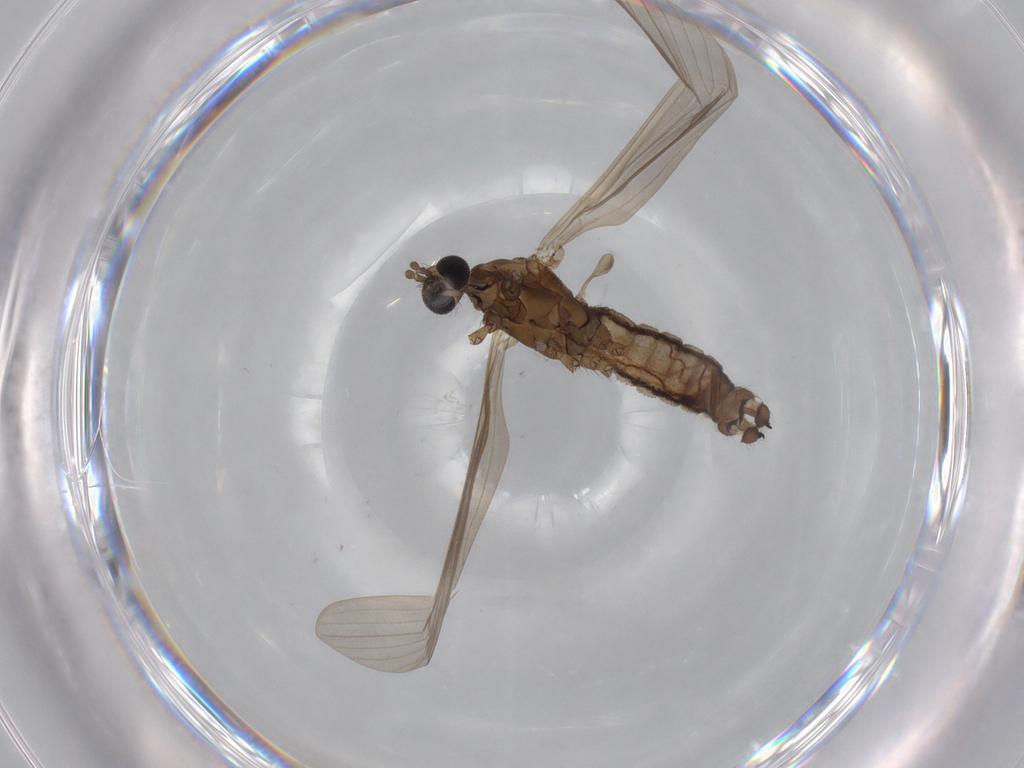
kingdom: Animalia
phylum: Arthropoda
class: Insecta
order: Diptera
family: Limoniidae
